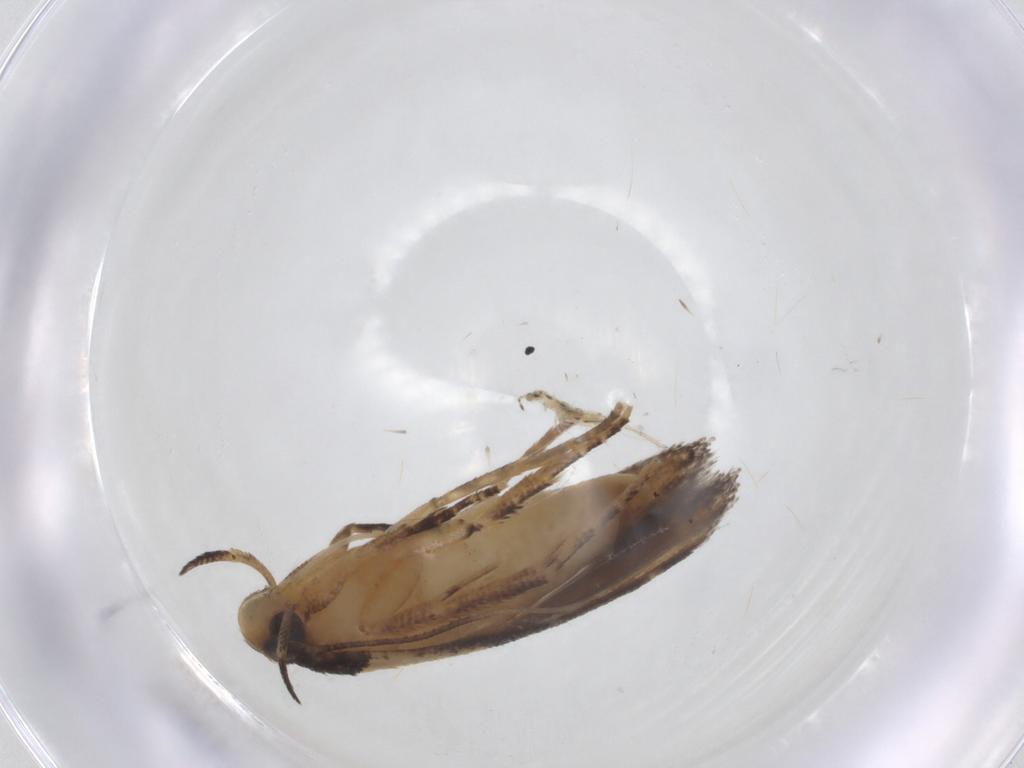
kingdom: Animalia
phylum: Arthropoda
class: Insecta
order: Lepidoptera
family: Cosmopterigidae
